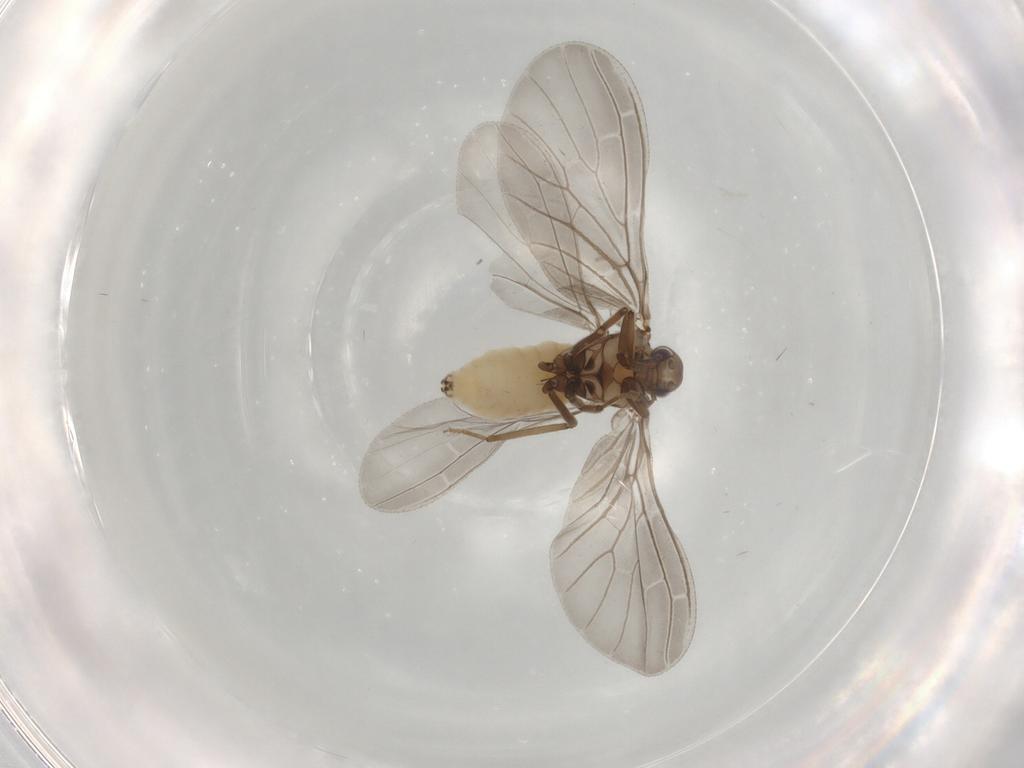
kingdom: Animalia
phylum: Arthropoda
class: Insecta
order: Neuroptera
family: Coniopterygidae
